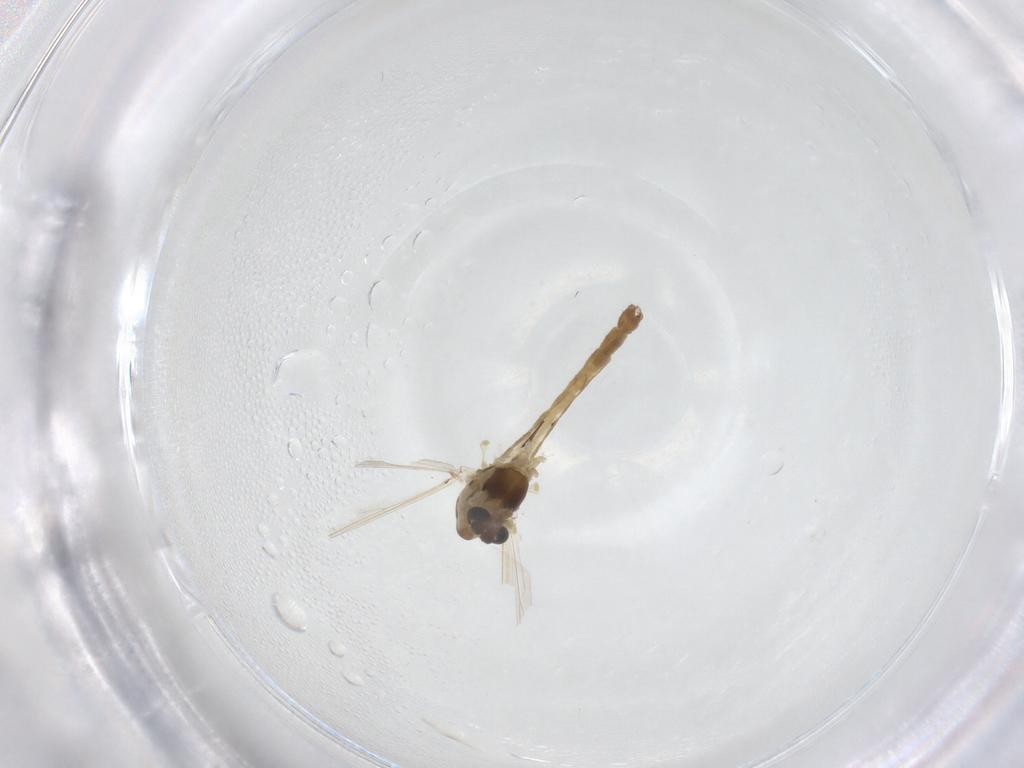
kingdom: Animalia
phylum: Arthropoda
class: Insecta
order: Diptera
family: Chironomidae
